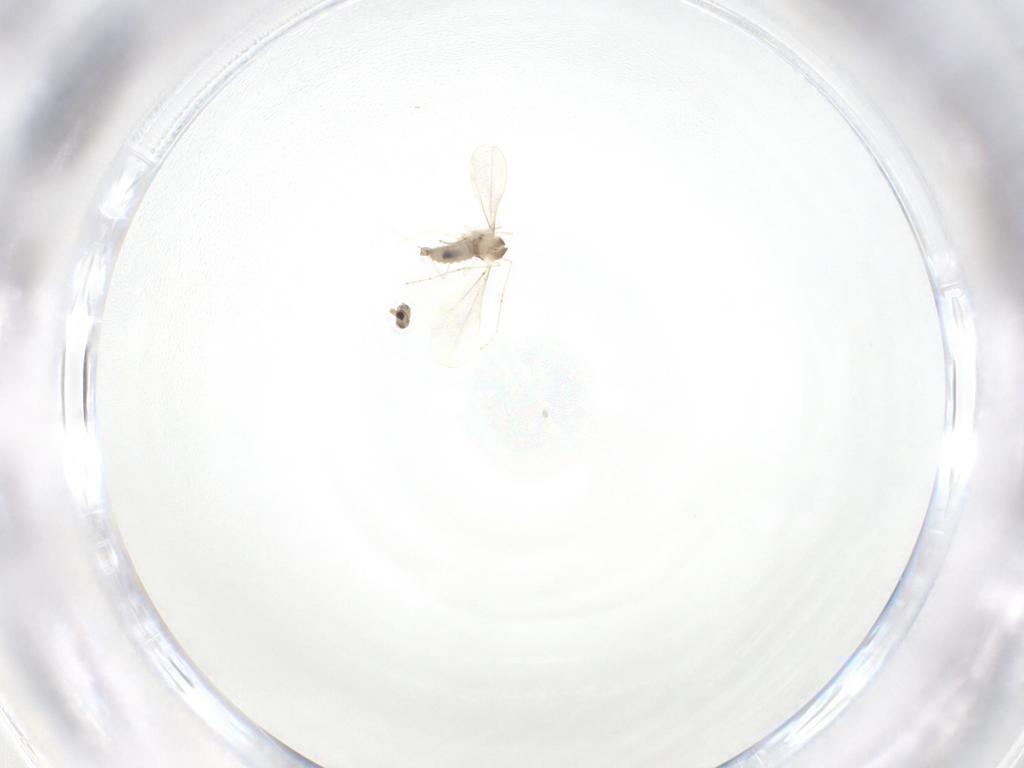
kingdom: Animalia
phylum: Arthropoda
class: Insecta
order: Diptera
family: Cecidomyiidae
